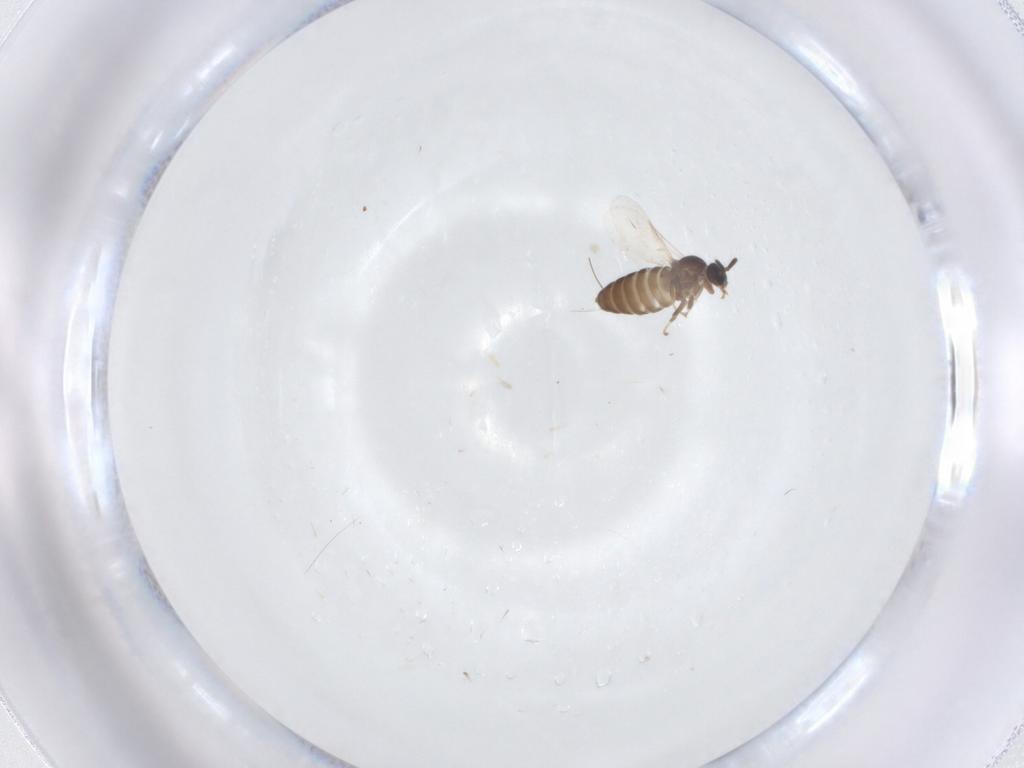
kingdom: Animalia
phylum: Arthropoda
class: Insecta
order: Diptera
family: Scatopsidae
